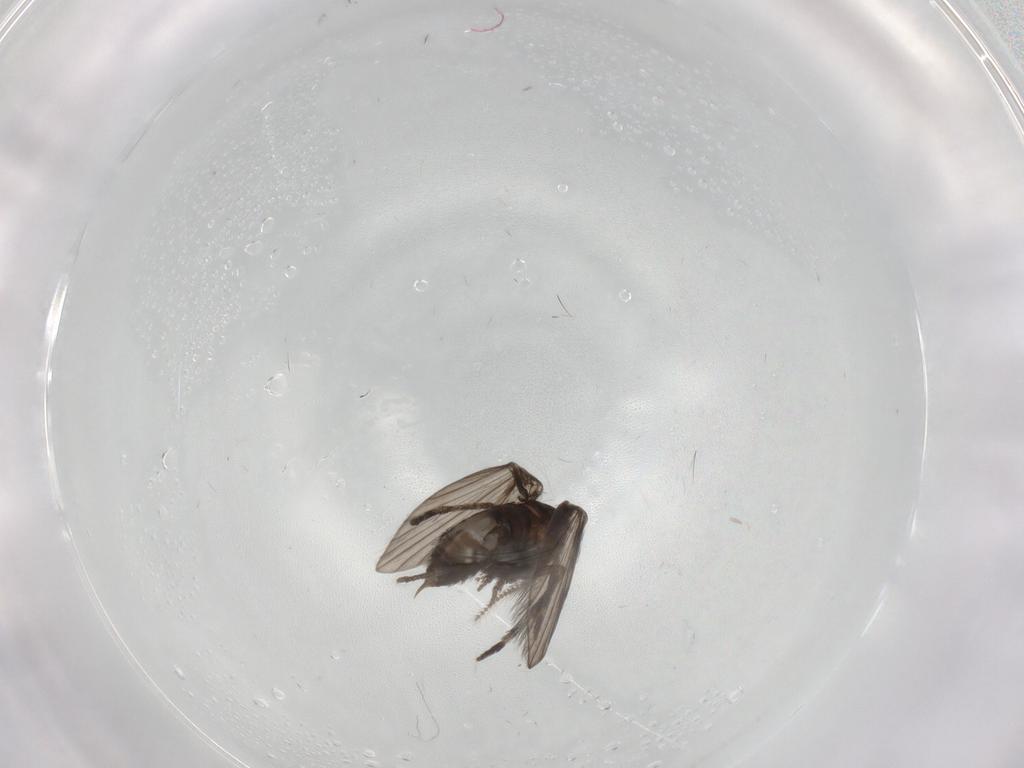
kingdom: Animalia
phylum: Arthropoda
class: Insecta
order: Diptera
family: Psychodidae
